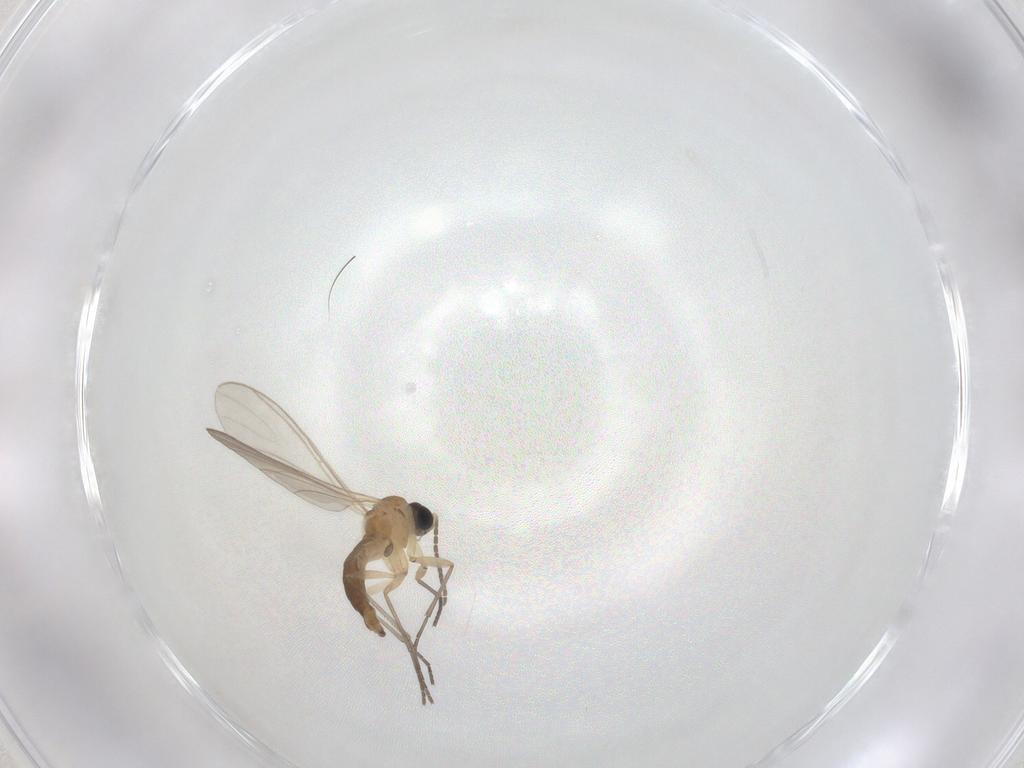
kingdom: Animalia
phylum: Arthropoda
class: Insecta
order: Diptera
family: Sciaridae
